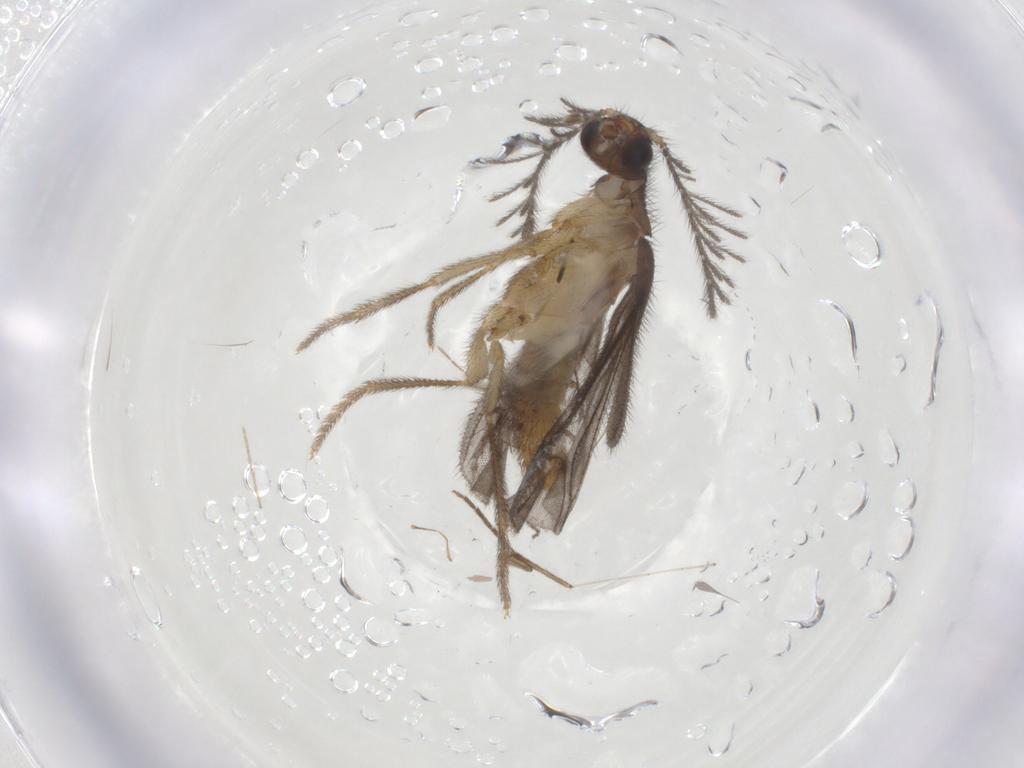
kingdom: Animalia
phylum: Arthropoda
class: Insecta
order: Diptera
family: Chironomidae
